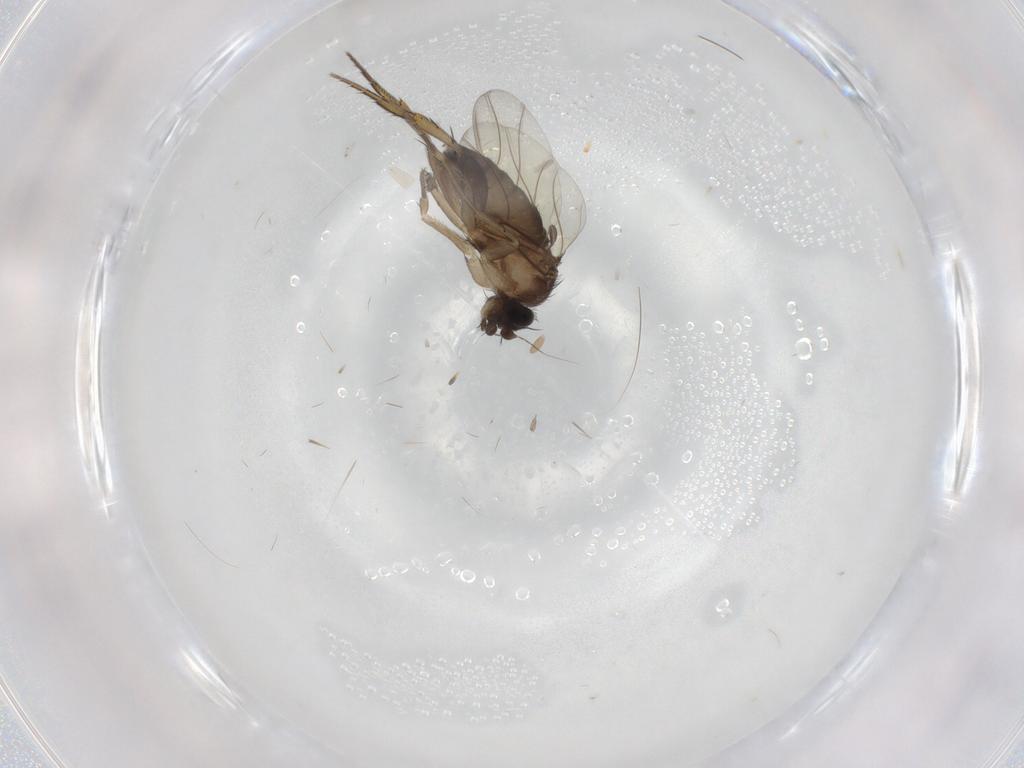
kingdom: Animalia
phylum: Arthropoda
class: Insecta
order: Diptera
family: Phoridae
